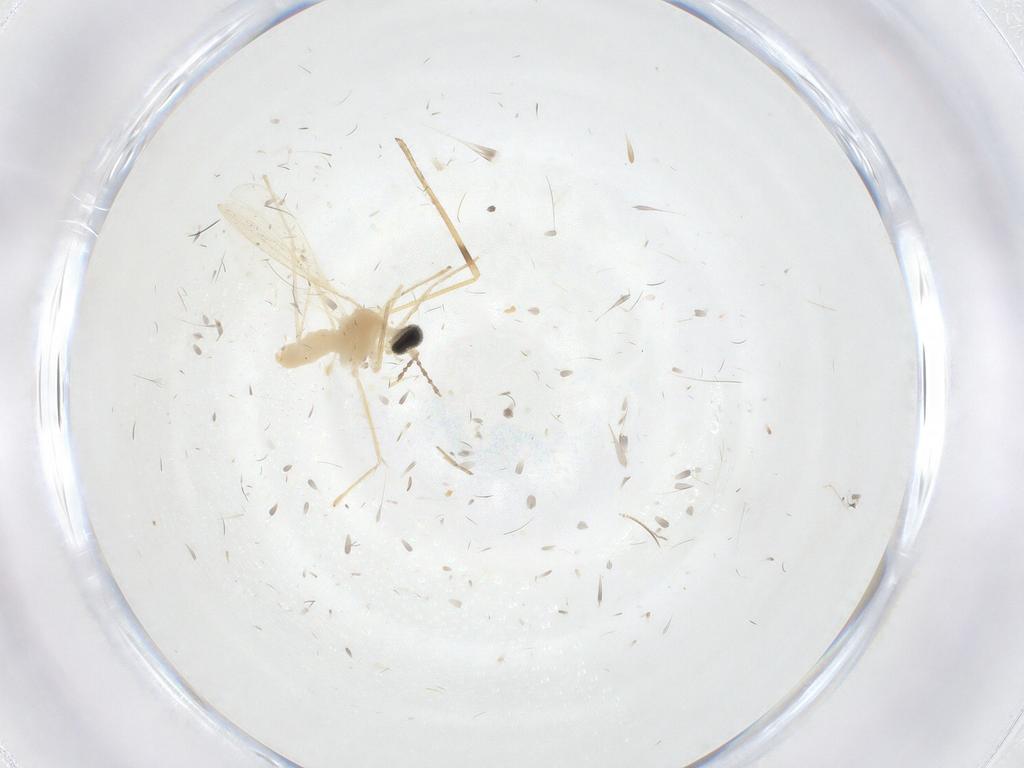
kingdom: Animalia
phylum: Arthropoda
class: Insecta
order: Diptera
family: Cecidomyiidae
